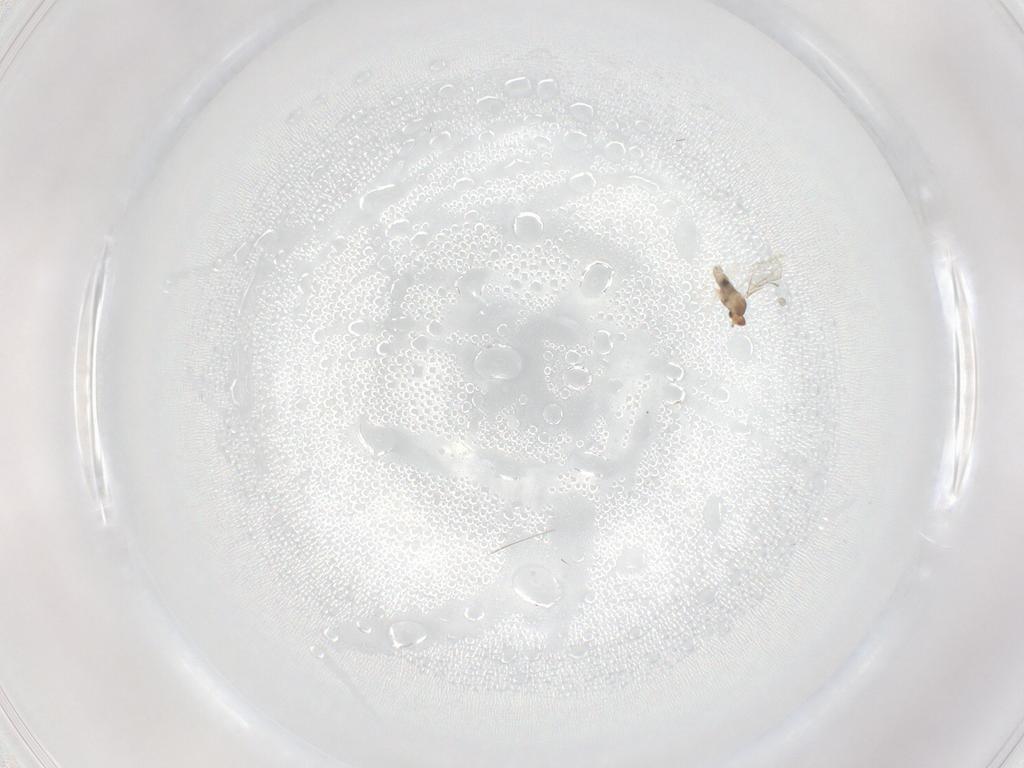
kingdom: Animalia
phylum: Arthropoda
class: Insecta
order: Diptera
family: Cecidomyiidae
